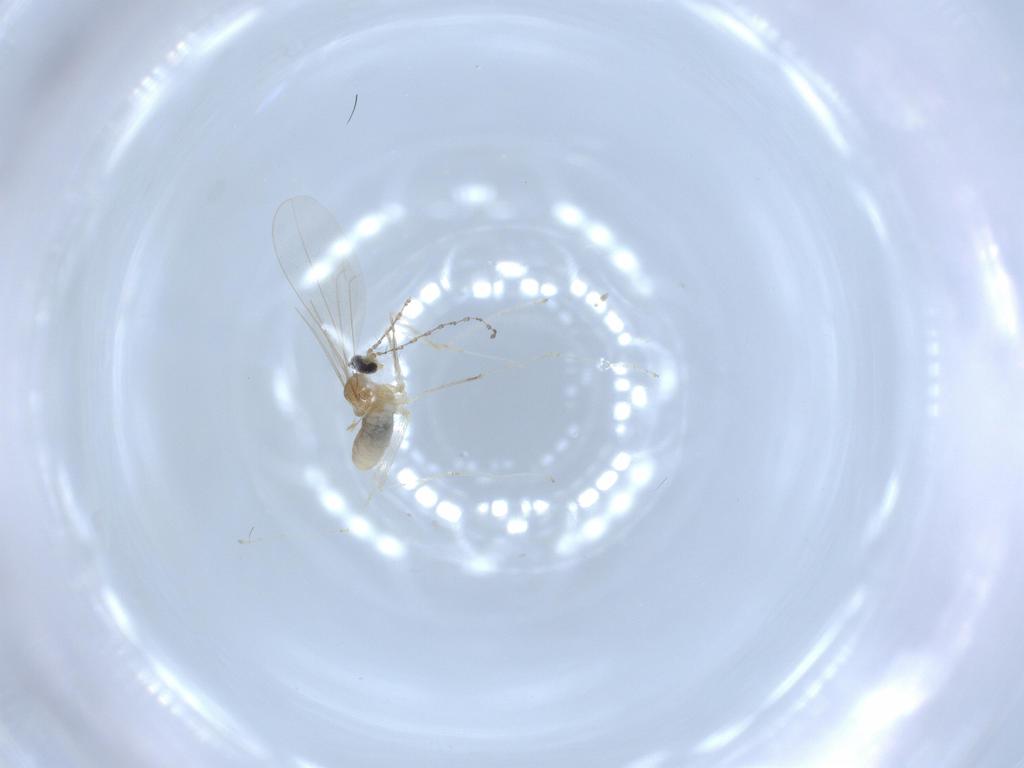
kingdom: Animalia
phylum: Arthropoda
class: Insecta
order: Diptera
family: Cecidomyiidae
